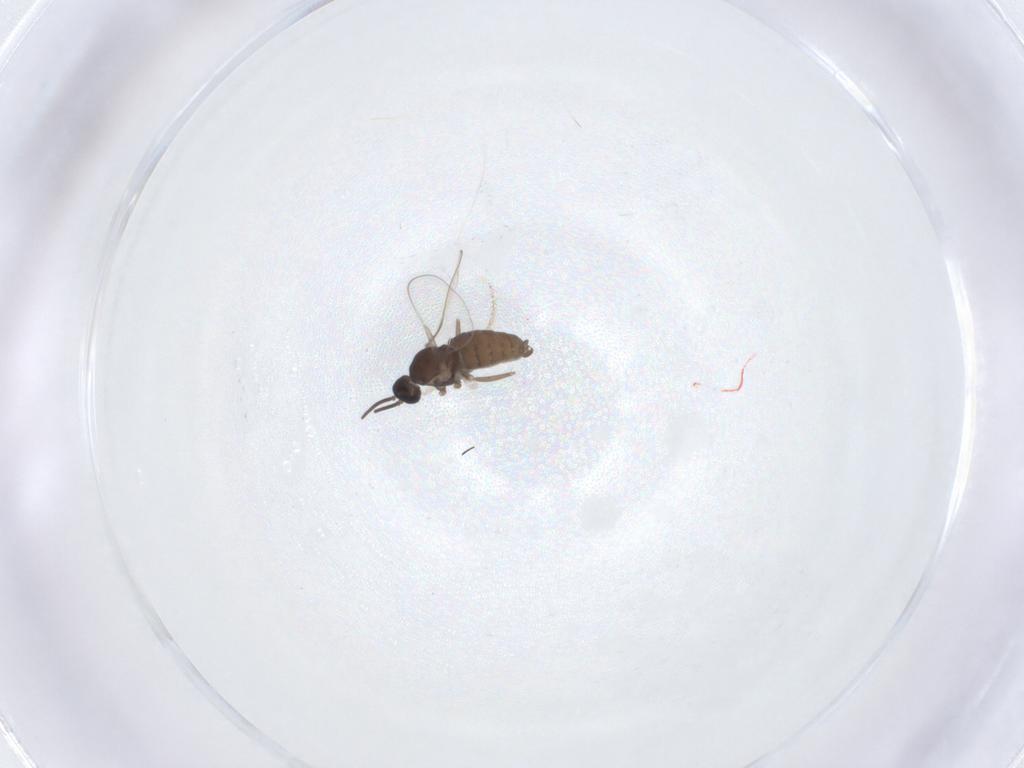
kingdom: Animalia
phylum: Arthropoda
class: Insecta
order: Diptera
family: Cecidomyiidae
